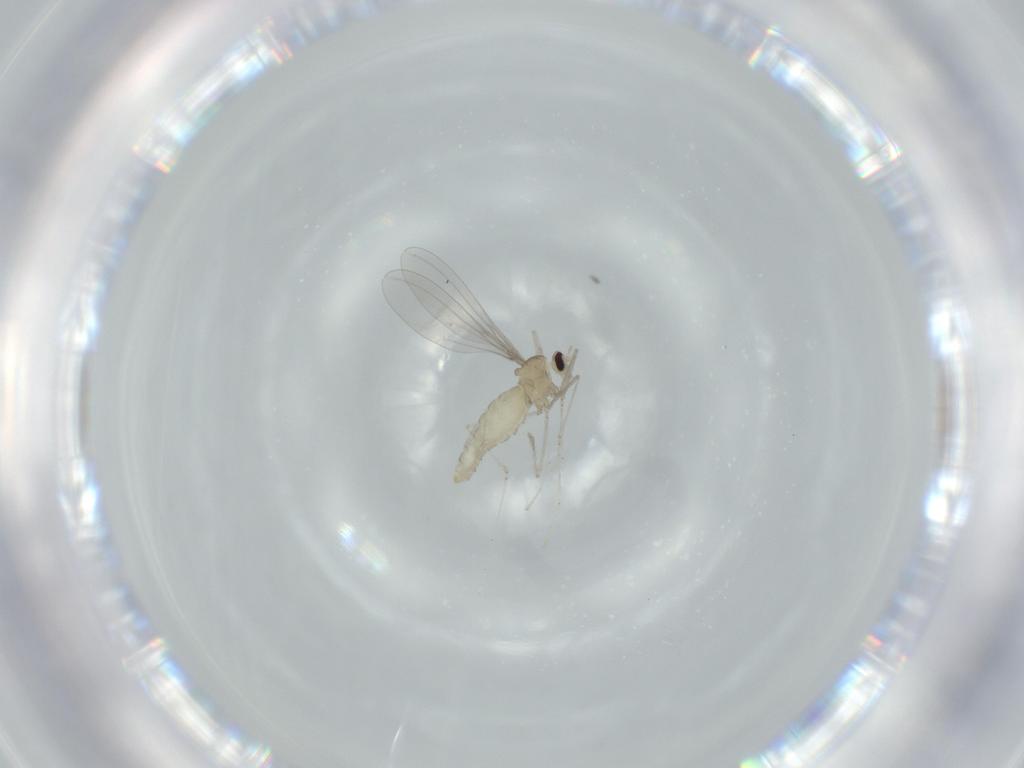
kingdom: Animalia
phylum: Arthropoda
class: Insecta
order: Diptera
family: Cecidomyiidae
